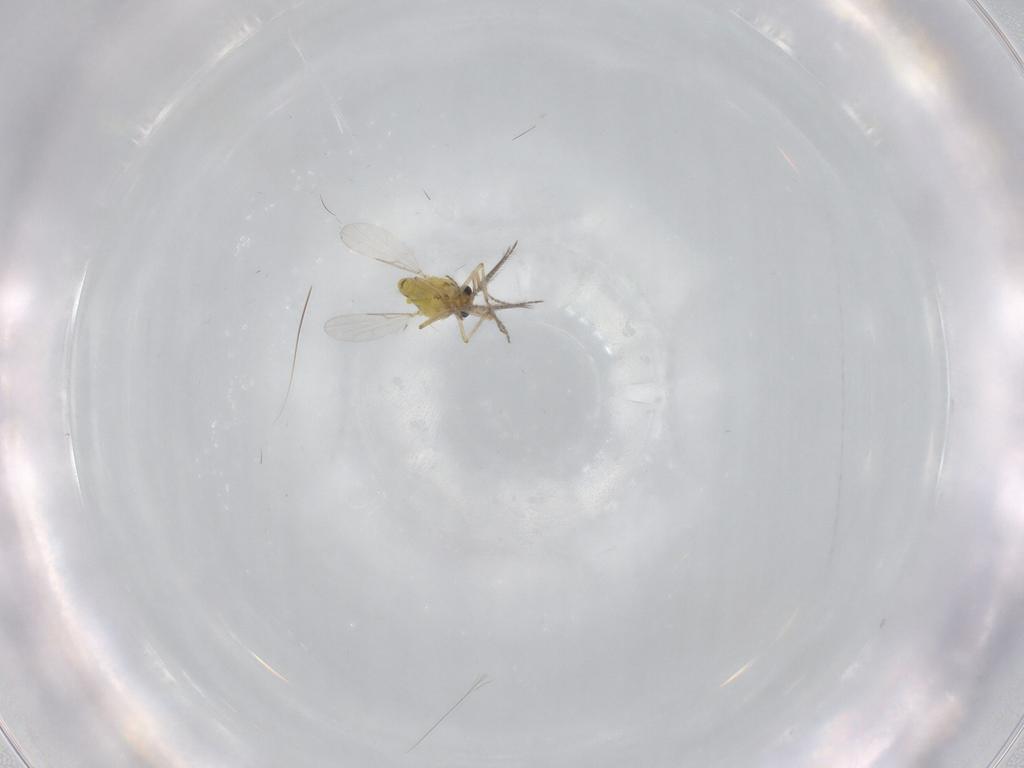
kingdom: Animalia
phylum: Arthropoda
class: Insecta
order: Diptera
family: Ceratopogonidae
